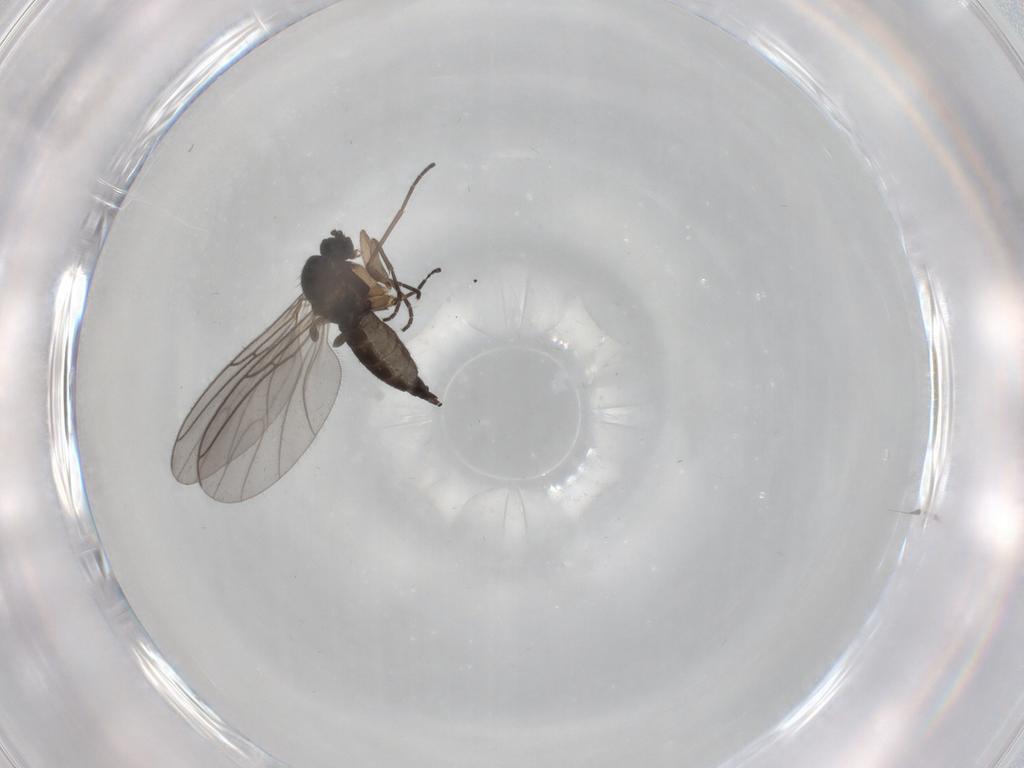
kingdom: Animalia
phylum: Arthropoda
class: Insecta
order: Diptera
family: Sciaridae
